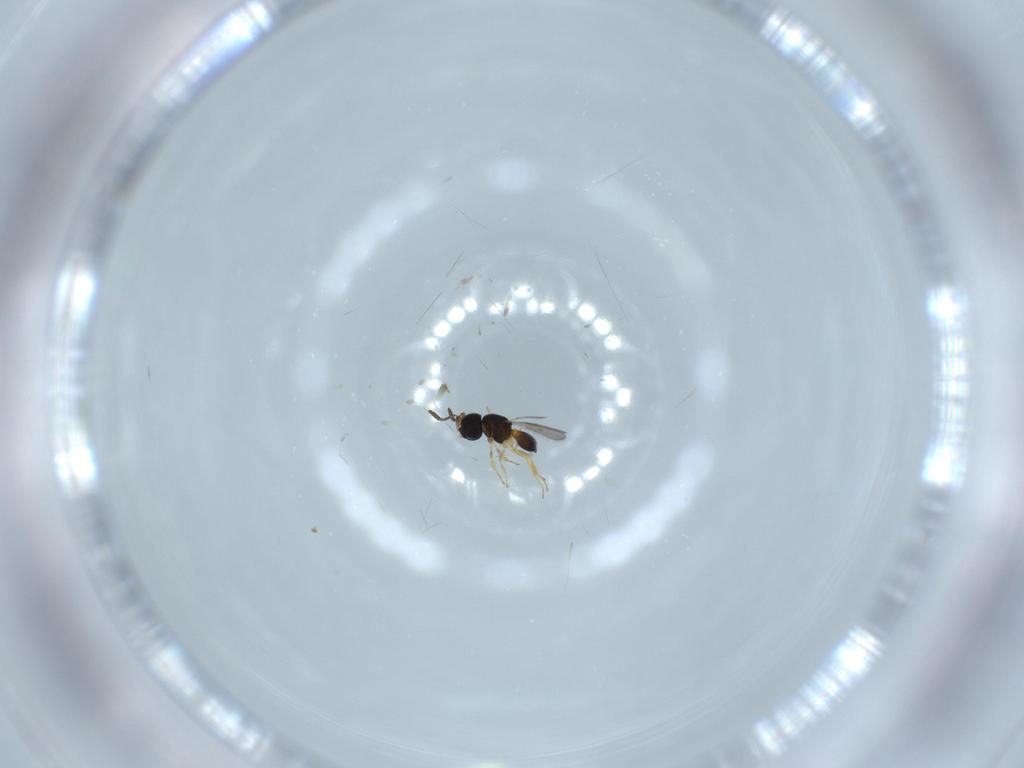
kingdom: Animalia
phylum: Arthropoda
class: Insecta
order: Hymenoptera
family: Scelionidae
